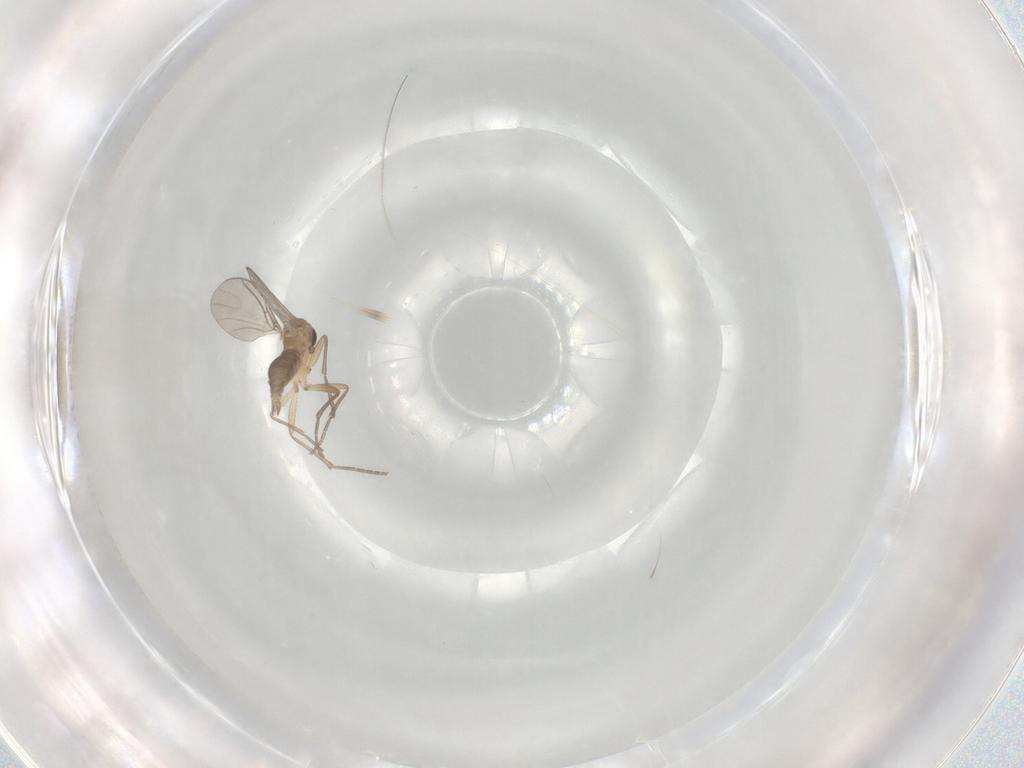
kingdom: Animalia
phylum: Arthropoda
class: Insecta
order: Diptera
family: Sciaridae
